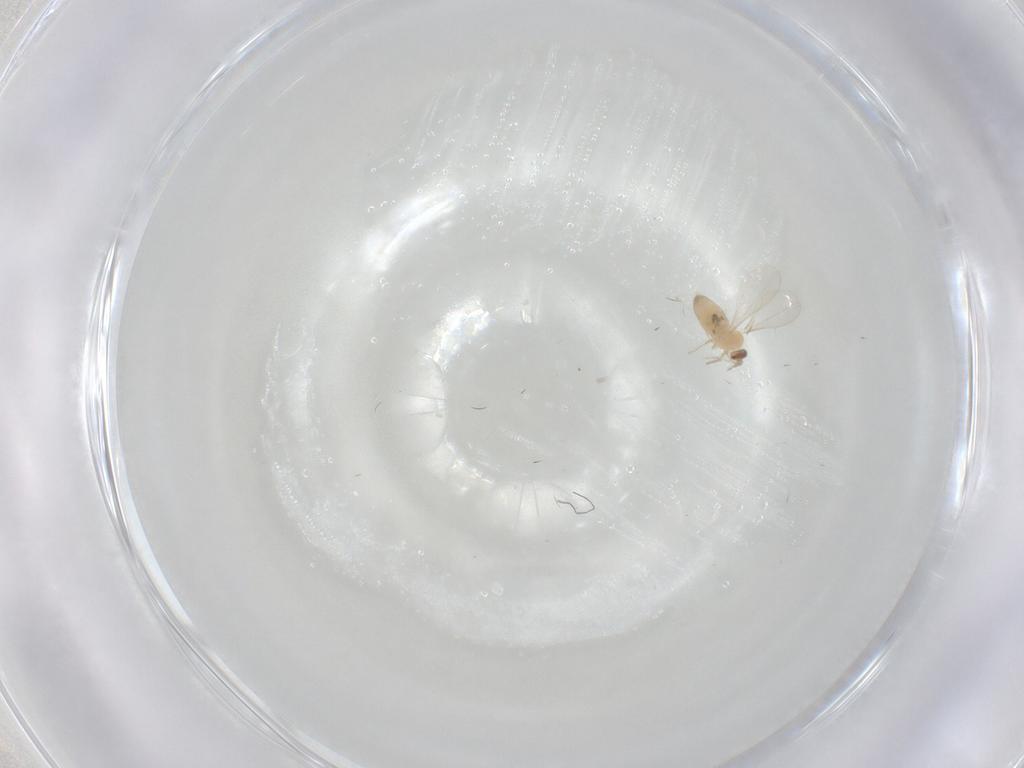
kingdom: Animalia
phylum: Arthropoda
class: Insecta
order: Diptera
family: Cecidomyiidae
